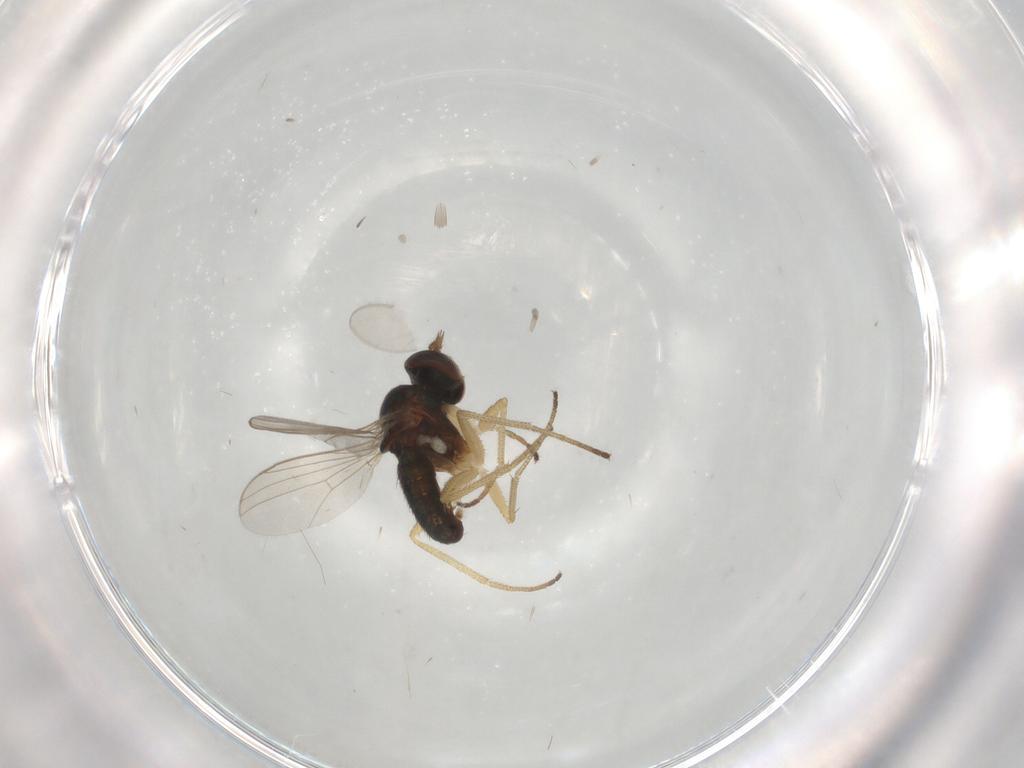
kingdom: Animalia
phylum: Arthropoda
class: Insecta
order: Diptera
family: Dolichopodidae
